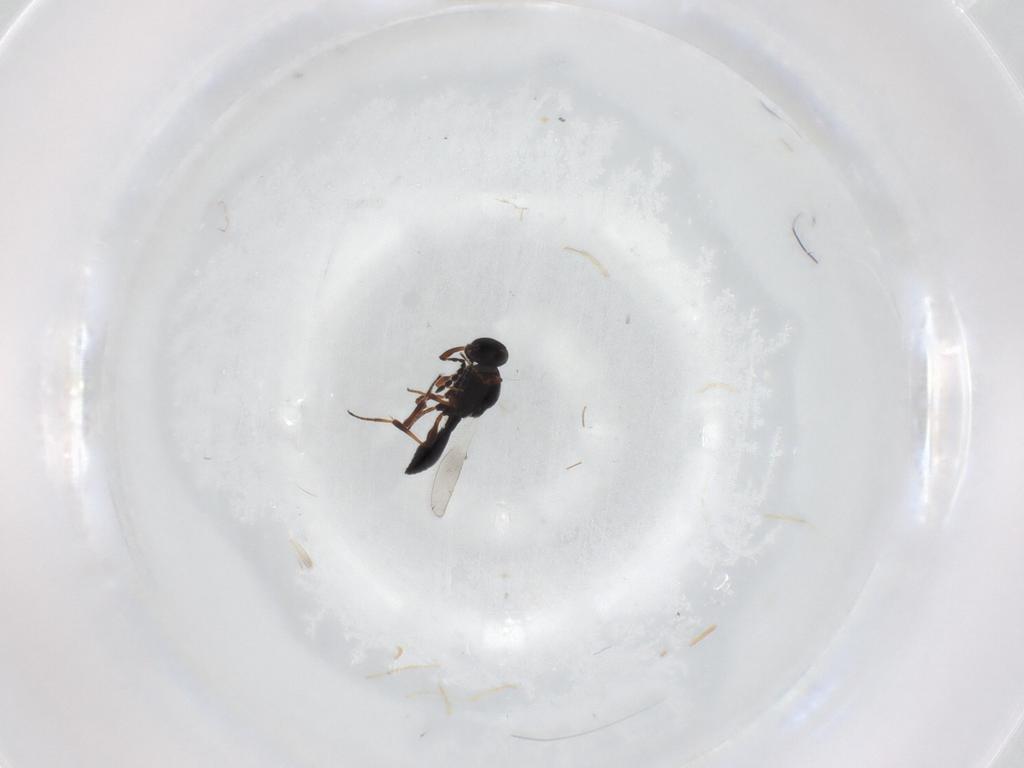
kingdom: Animalia
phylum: Arthropoda
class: Insecta
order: Hymenoptera
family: Platygastridae
